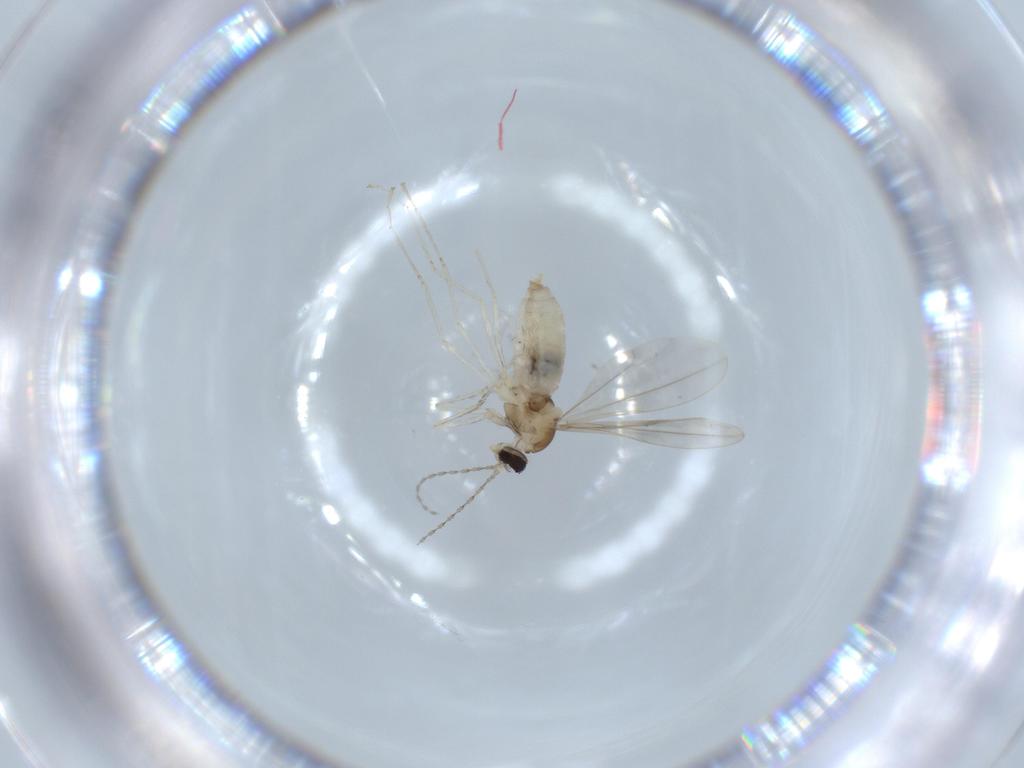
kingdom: Animalia
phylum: Arthropoda
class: Insecta
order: Diptera
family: Cecidomyiidae
